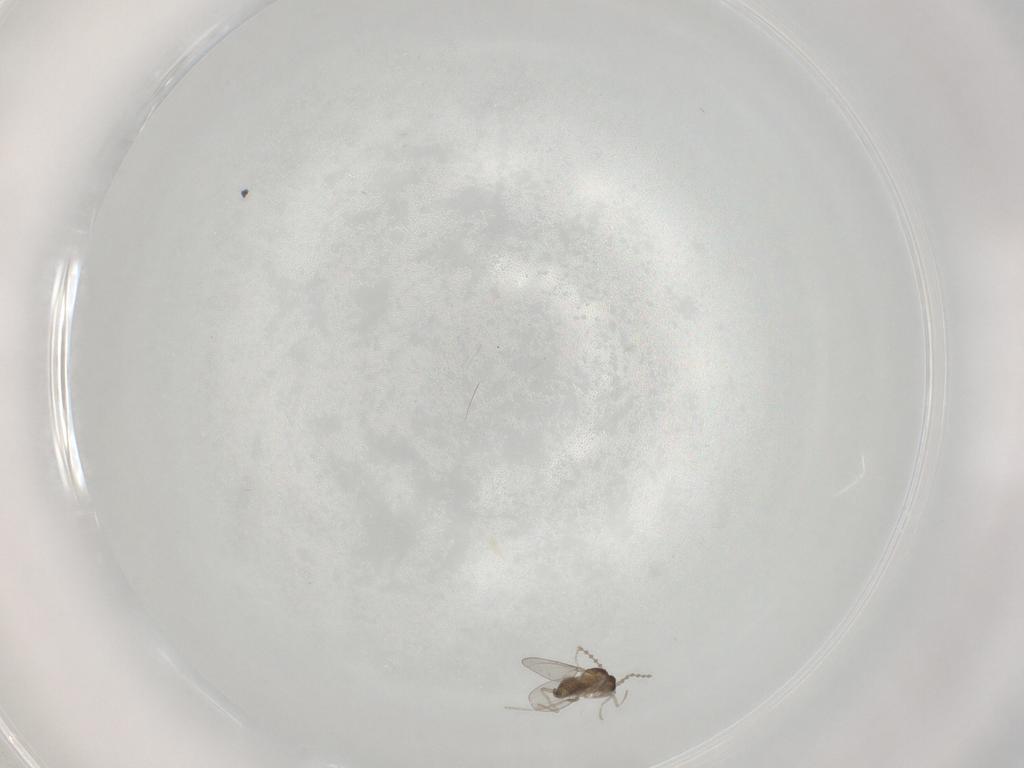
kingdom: Animalia
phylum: Arthropoda
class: Insecta
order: Diptera
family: Cecidomyiidae
